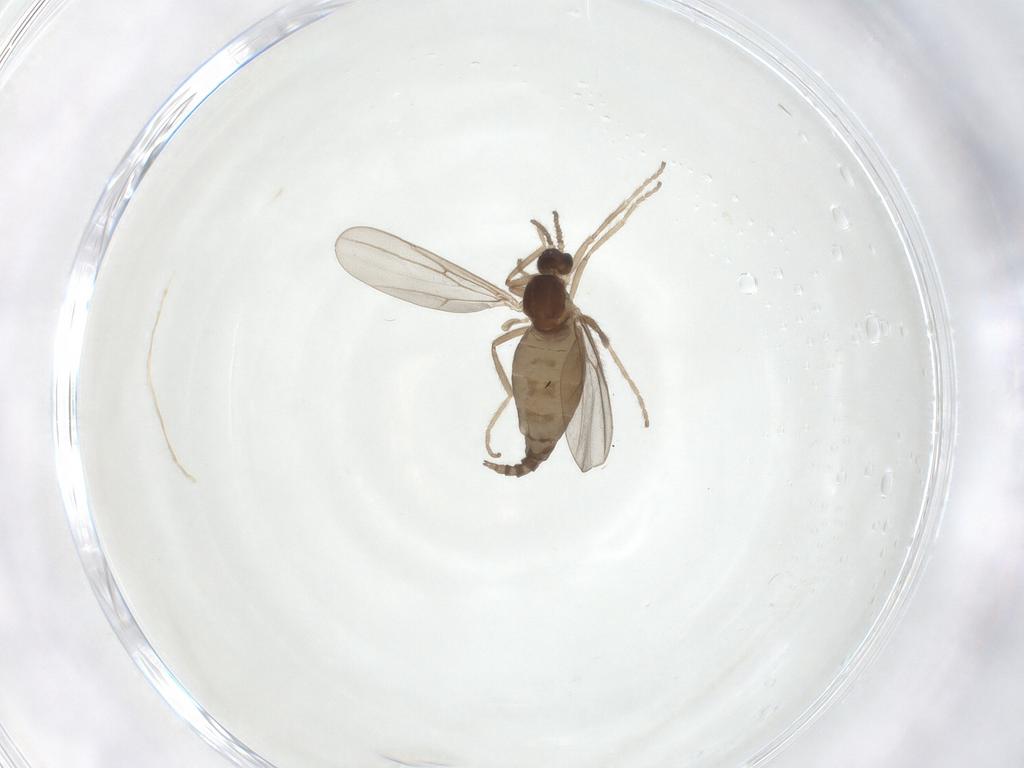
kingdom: Animalia
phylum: Arthropoda
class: Insecta
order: Diptera
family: Cecidomyiidae
